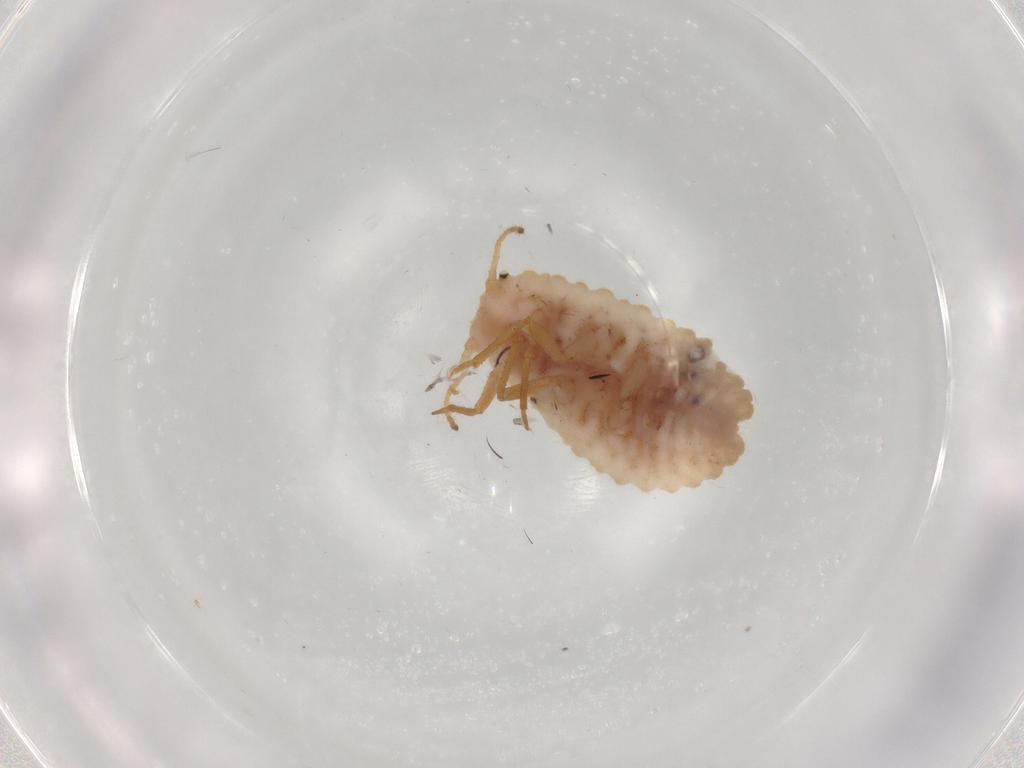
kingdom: Animalia
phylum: Arthropoda
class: Insecta
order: Hemiptera
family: Coccoidea_incertae_sedis
